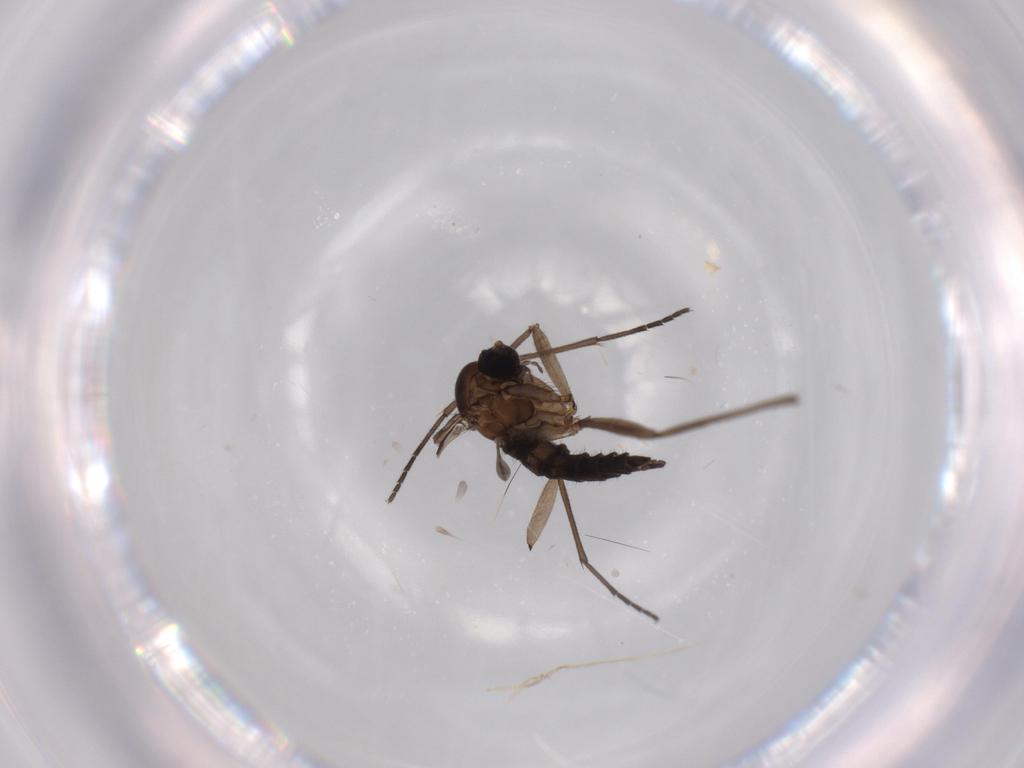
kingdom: Animalia
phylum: Arthropoda
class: Insecta
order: Diptera
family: Sciaridae
